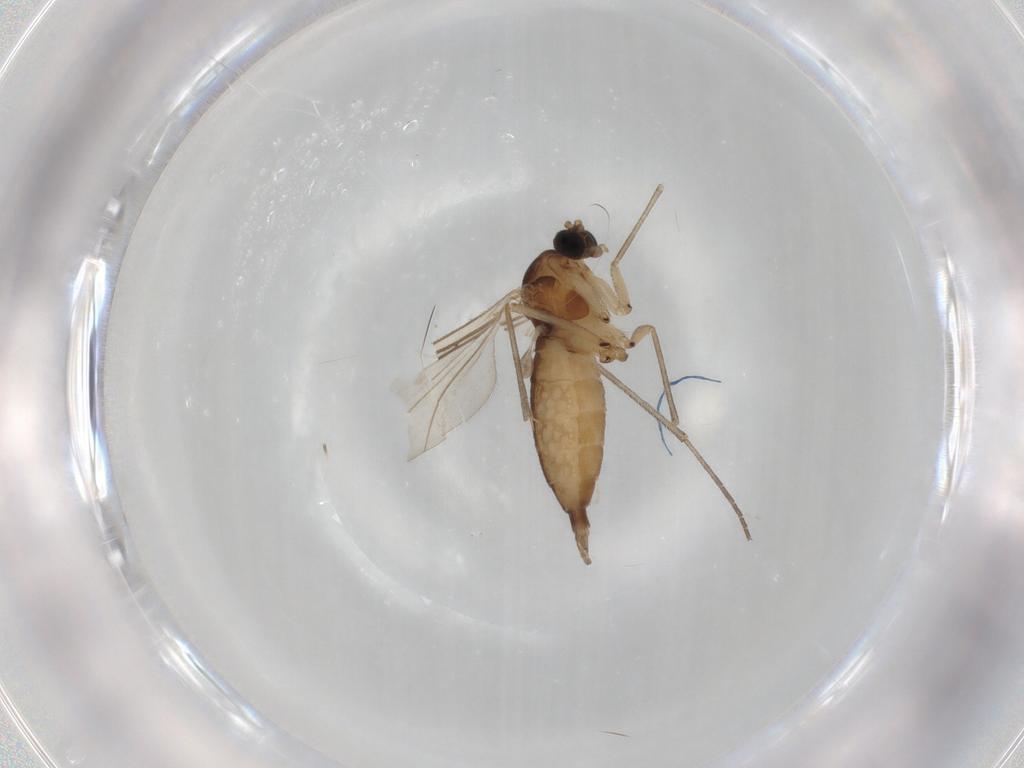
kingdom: Animalia
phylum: Arthropoda
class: Insecta
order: Diptera
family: Sciaridae
